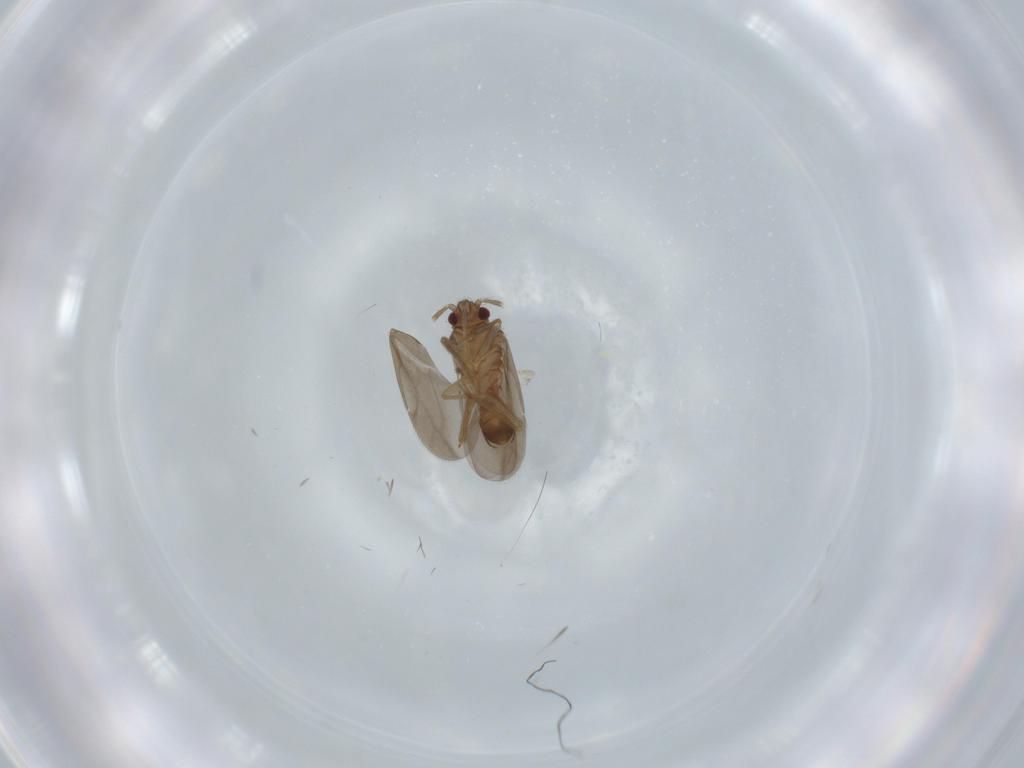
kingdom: Animalia
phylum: Arthropoda
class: Insecta
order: Hemiptera
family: Ceratocombidae
